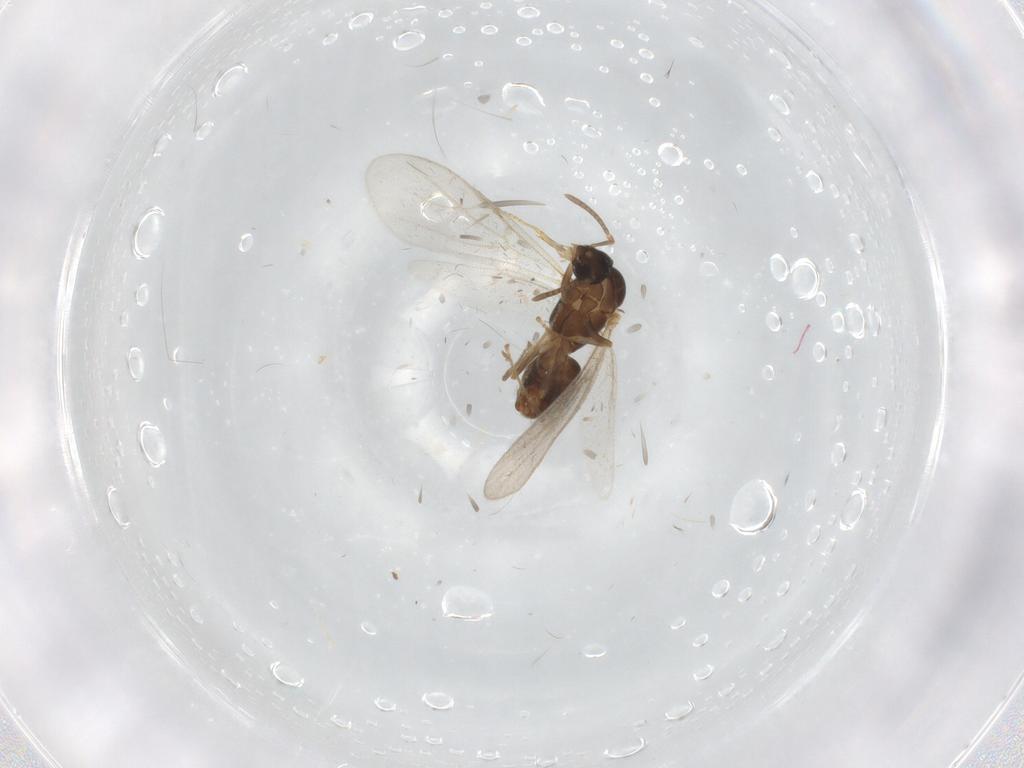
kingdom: Animalia
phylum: Arthropoda
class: Insecta
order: Hymenoptera
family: Formicidae
